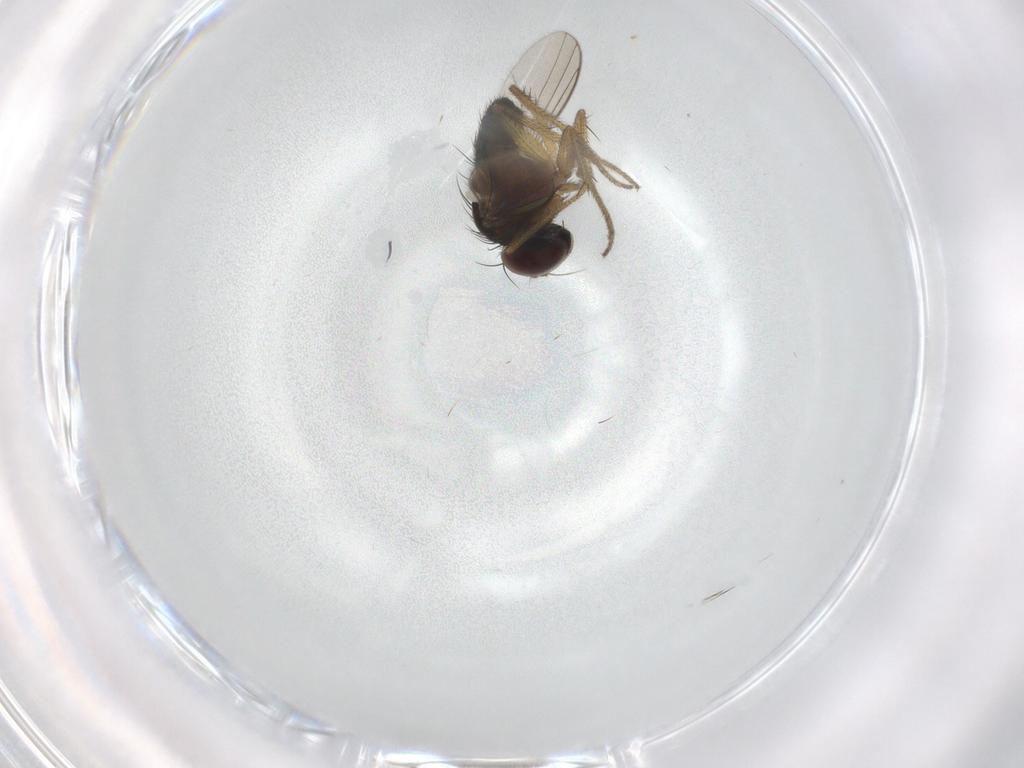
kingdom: Animalia
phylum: Arthropoda
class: Insecta
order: Diptera
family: Chironomidae
